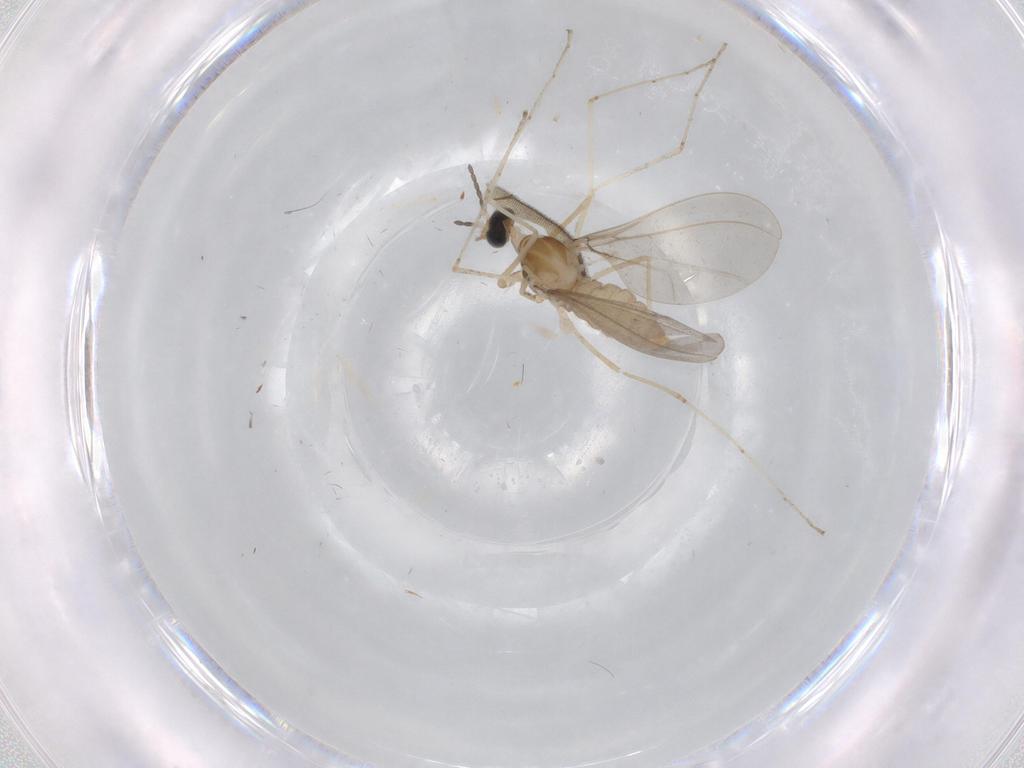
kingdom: Animalia
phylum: Arthropoda
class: Insecta
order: Diptera
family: Cecidomyiidae
